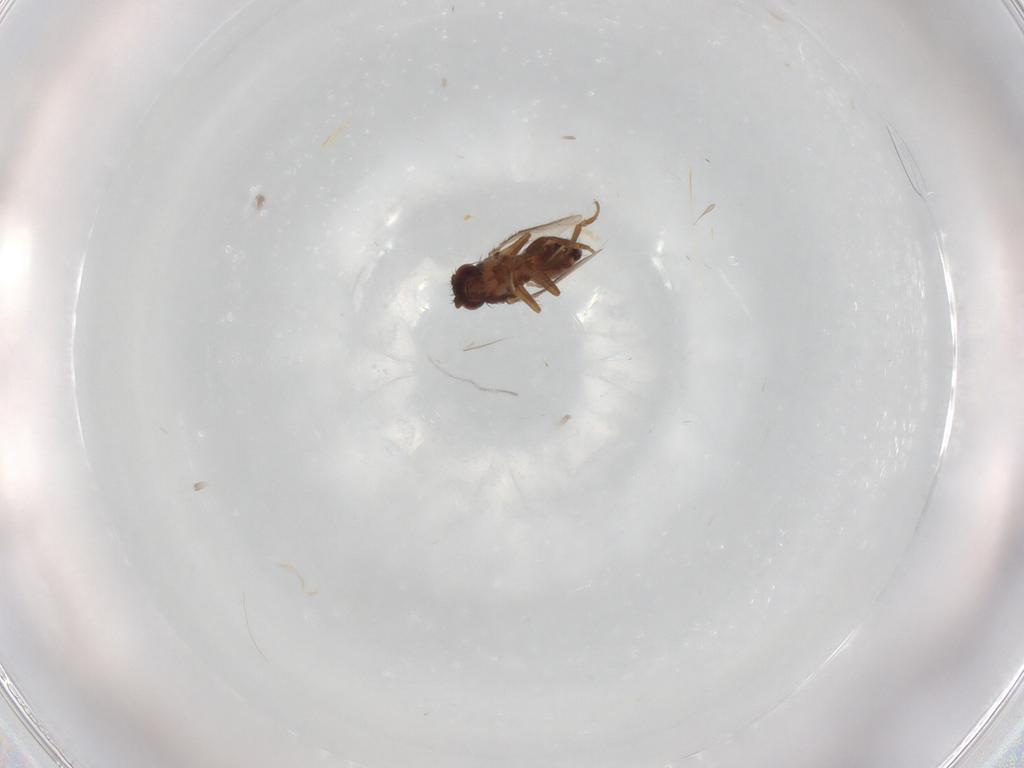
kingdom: Animalia
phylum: Arthropoda
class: Insecta
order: Diptera
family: Sphaeroceridae
